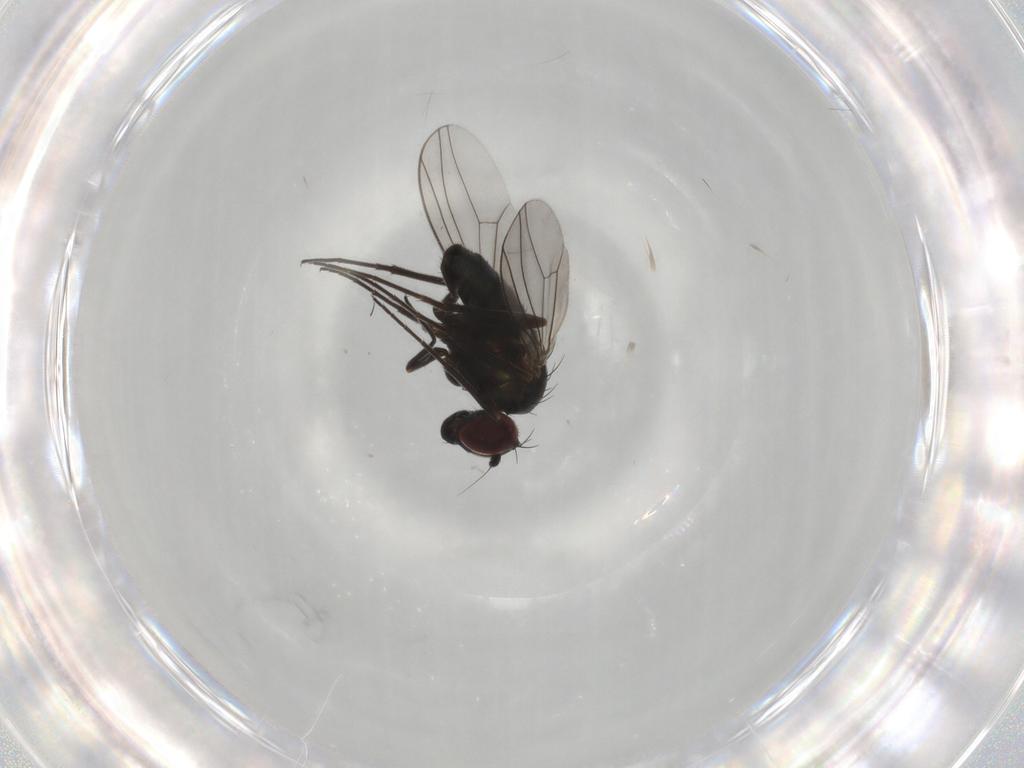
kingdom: Animalia
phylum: Arthropoda
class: Insecta
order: Diptera
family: Dolichopodidae
